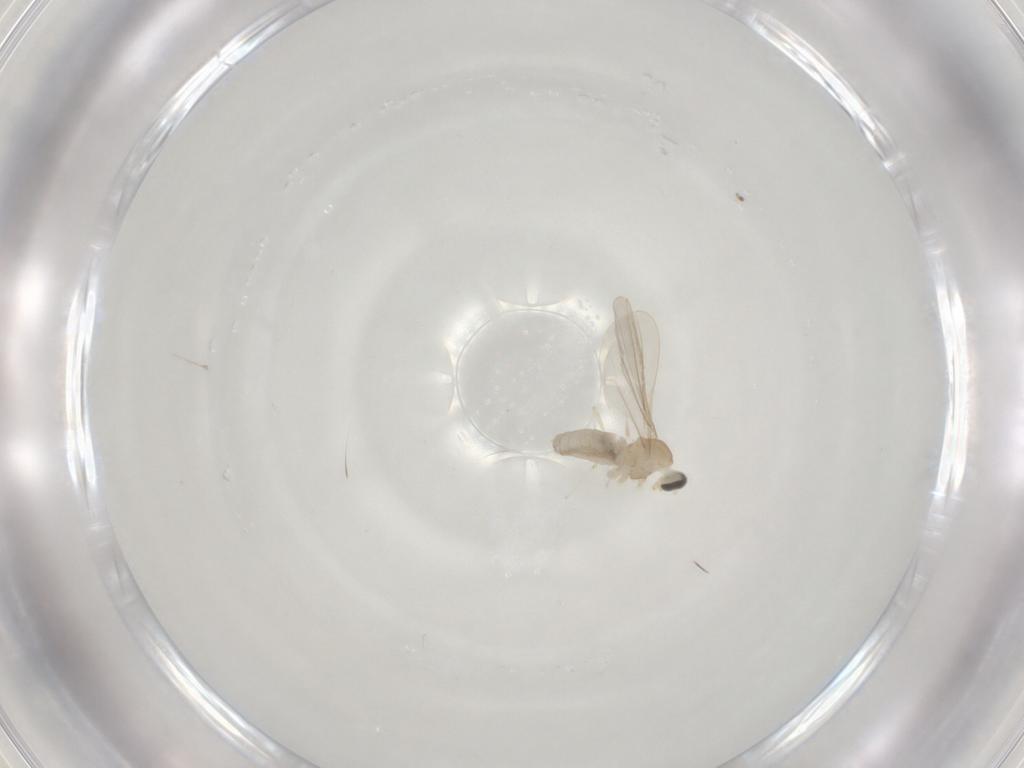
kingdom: Animalia
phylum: Arthropoda
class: Insecta
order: Diptera
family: Cecidomyiidae
